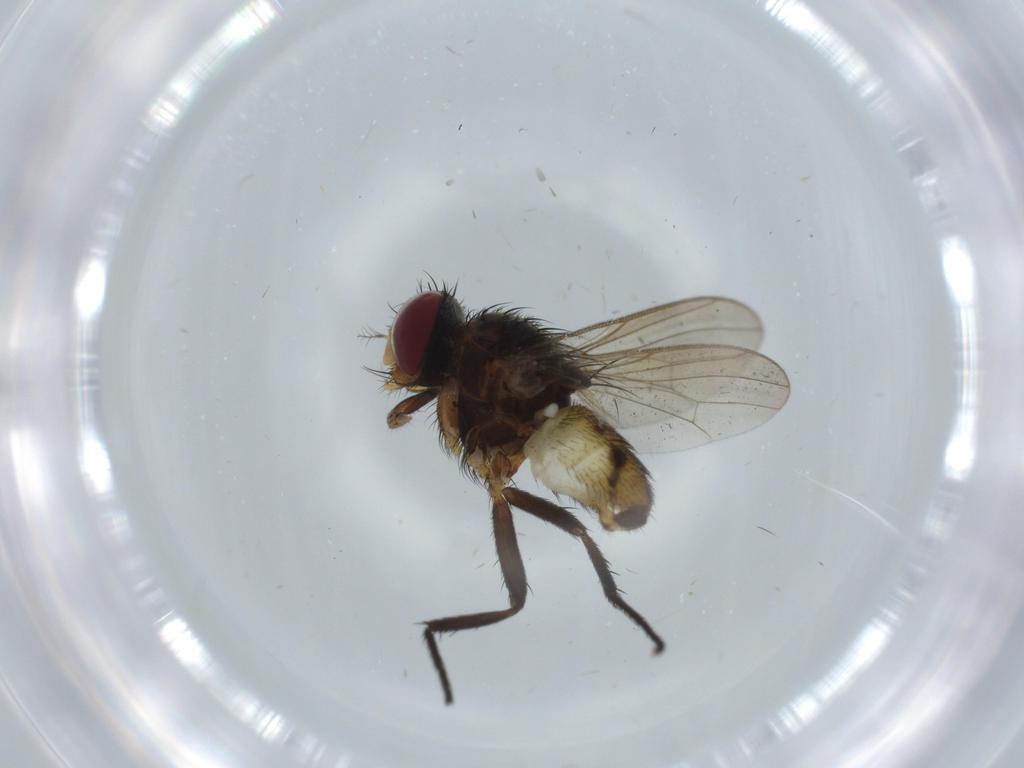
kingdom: Animalia
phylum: Arthropoda
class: Insecta
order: Diptera
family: Anthomyiidae
